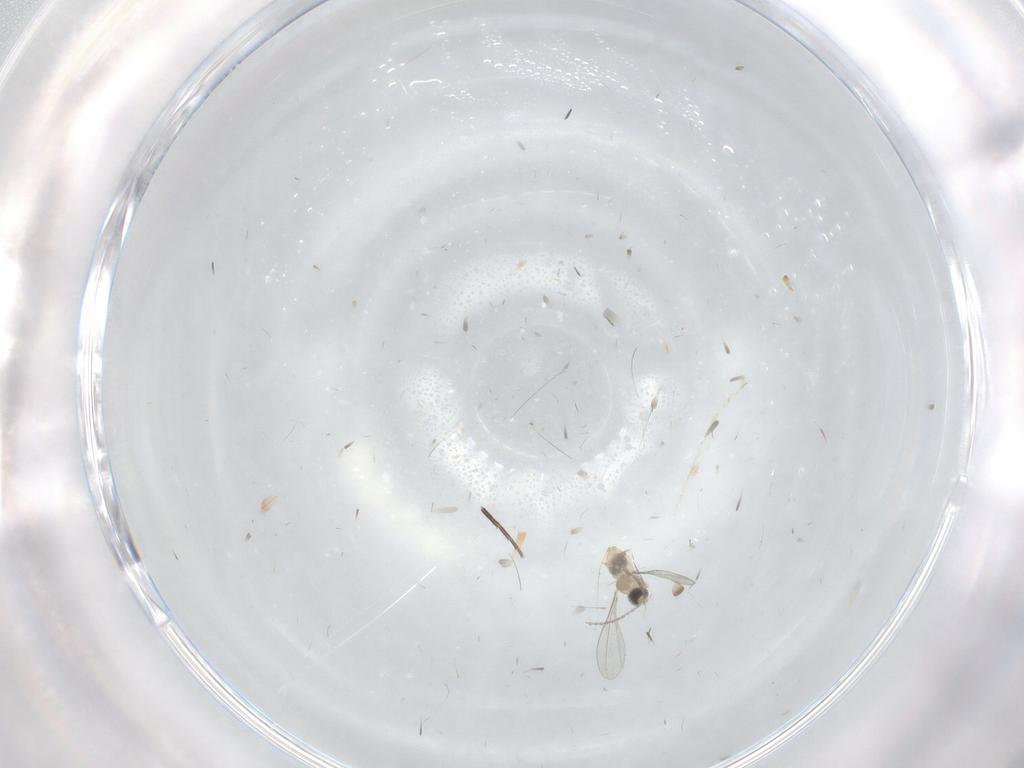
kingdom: Animalia
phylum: Arthropoda
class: Insecta
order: Diptera
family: Cecidomyiidae
